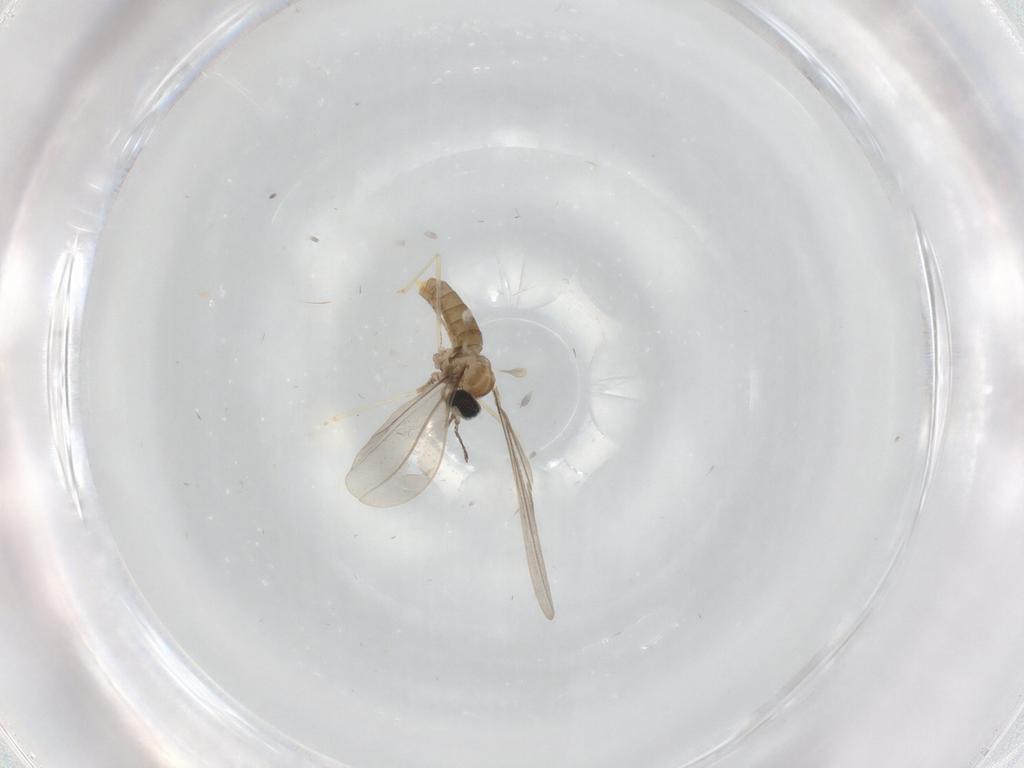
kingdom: Animalia
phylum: Arthropoda
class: Insecta
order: Diptera
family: Cecidomyiidae
